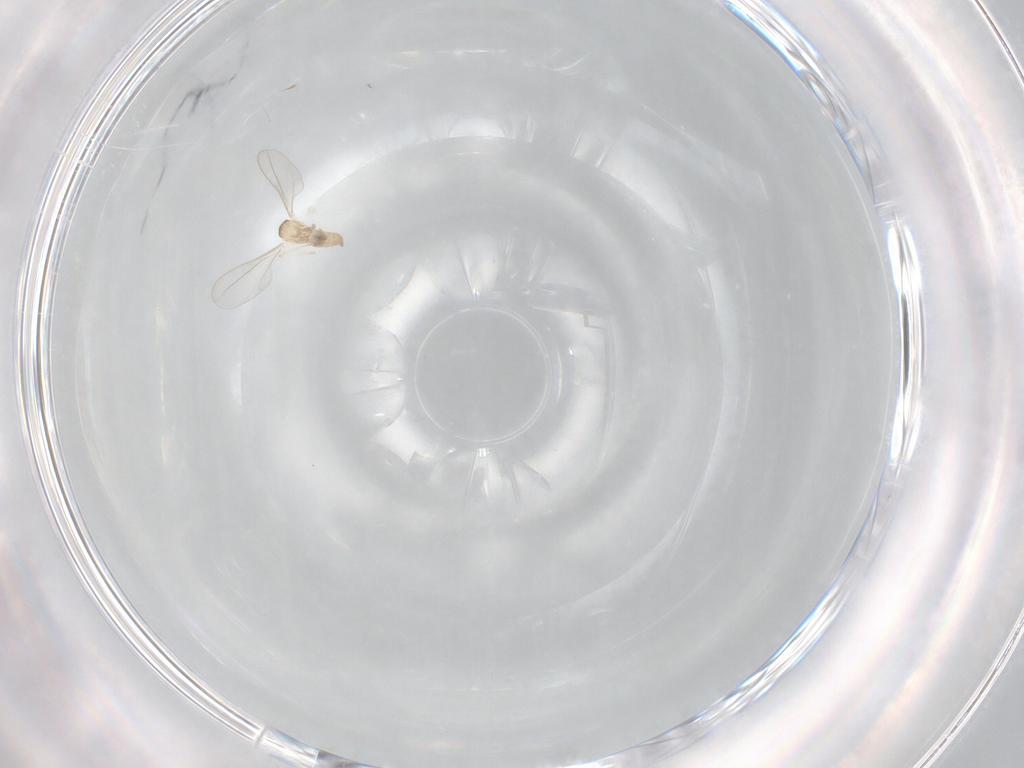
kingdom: Animalia
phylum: Arthropoda
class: Insecta
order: Diptera
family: Cecidomyiidae
